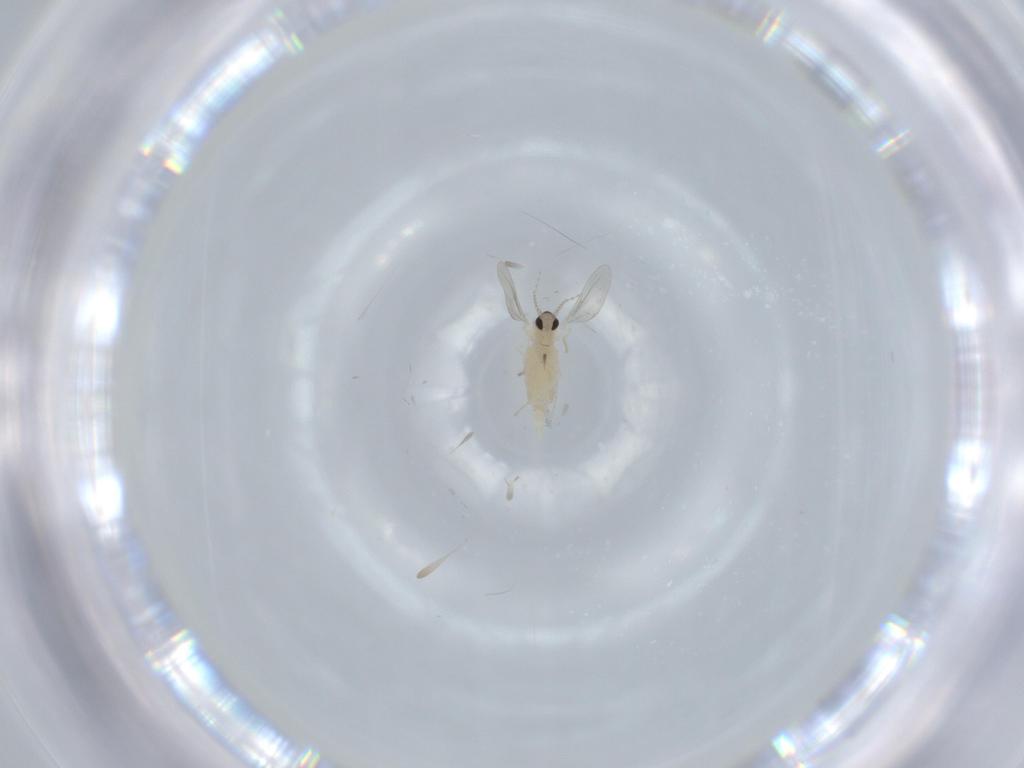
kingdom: Animalia
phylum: Arthropoda
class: Insecta
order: Diptera
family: Cecidomyiidae
